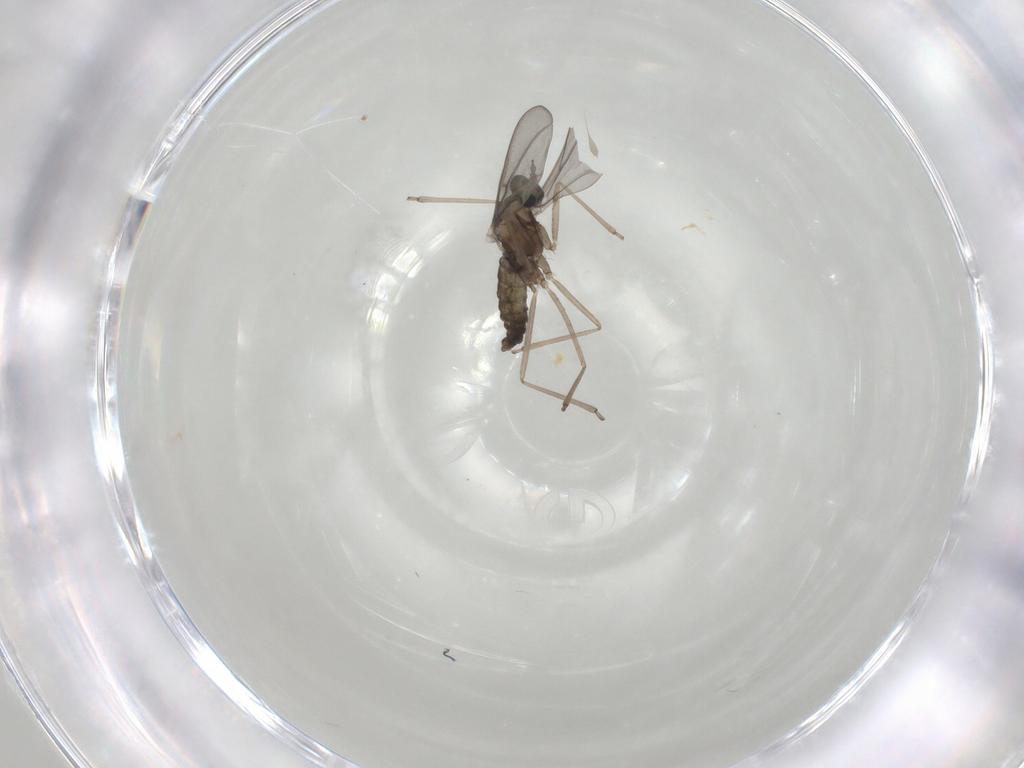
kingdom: Animalia
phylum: Arthropoda
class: Insecta
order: Diptera
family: Cecidomyiidae
